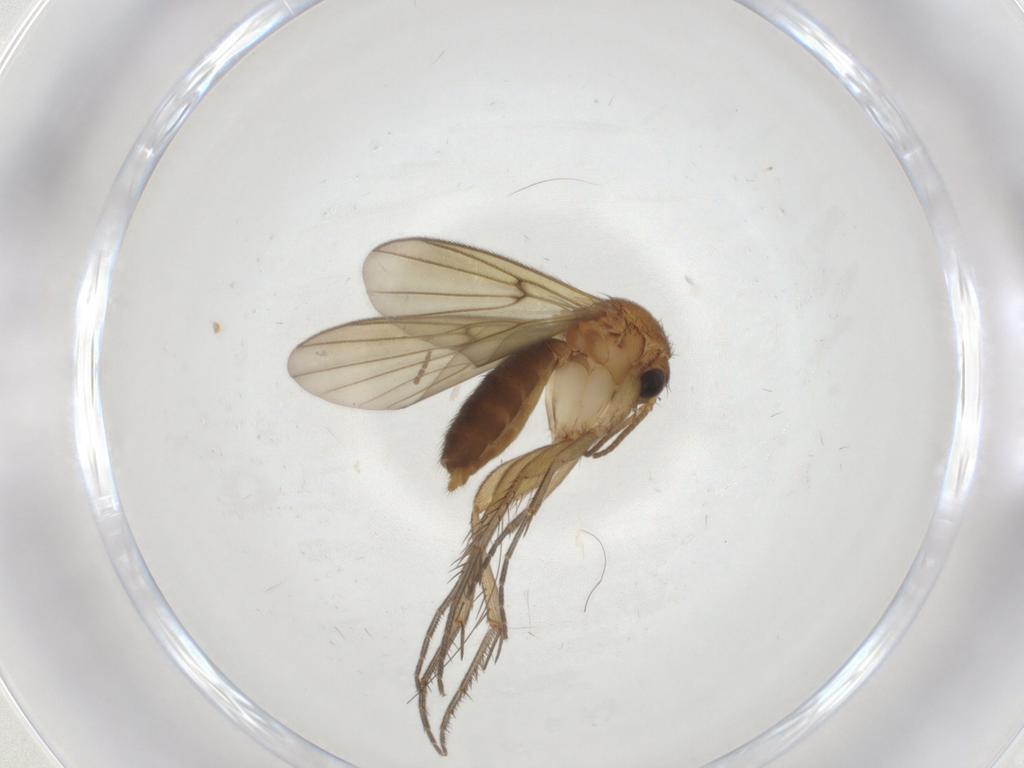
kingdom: Animalia
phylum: Arthropoda
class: Insecta
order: Diptera
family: Mycetophilidae
